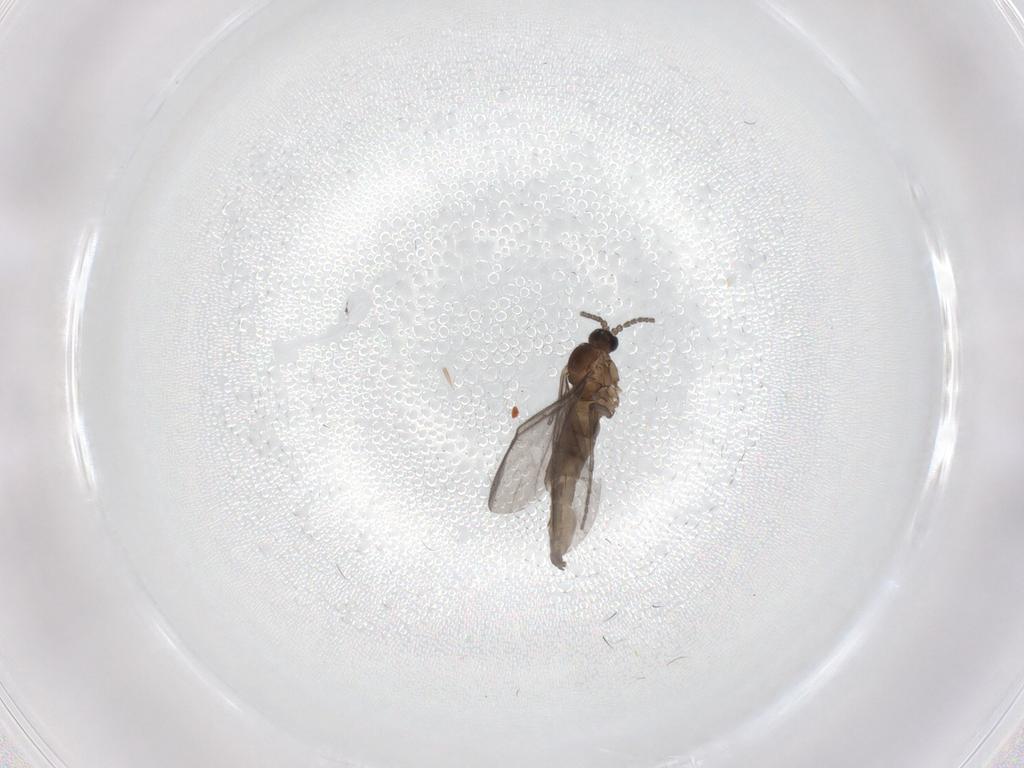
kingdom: Animalia
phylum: Arthropoda
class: Insecta
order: Diptera
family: Sciaridae
